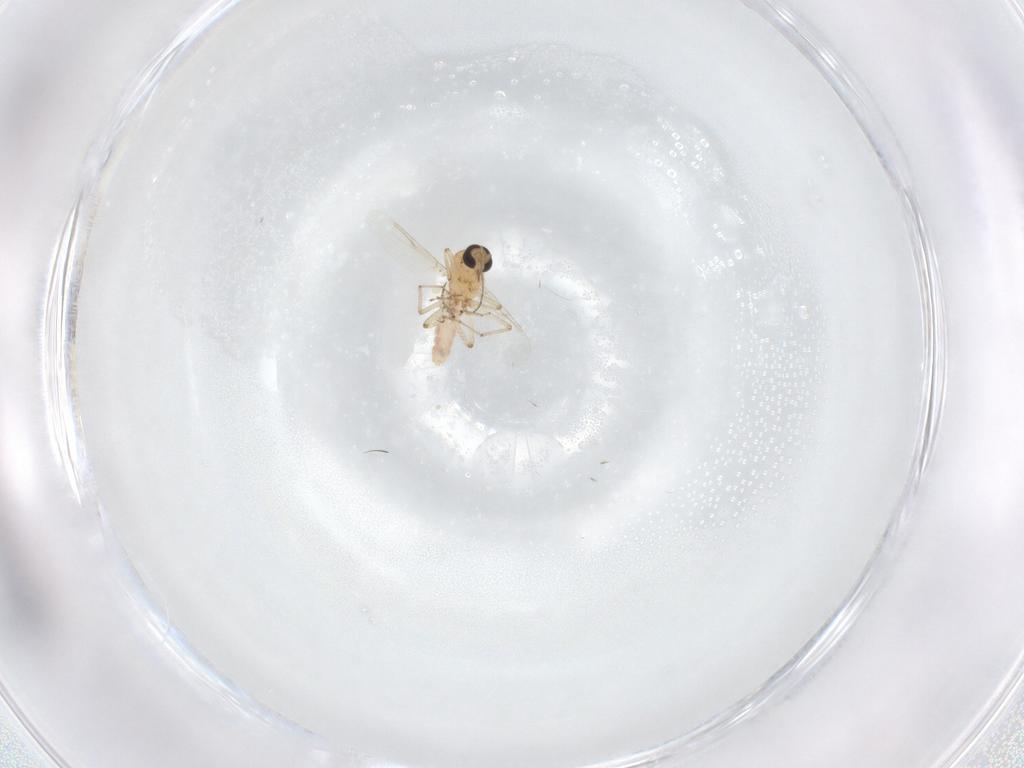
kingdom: Animalia
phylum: Arthropoda
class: Insecta
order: Diptera
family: Ceratopogonidae
